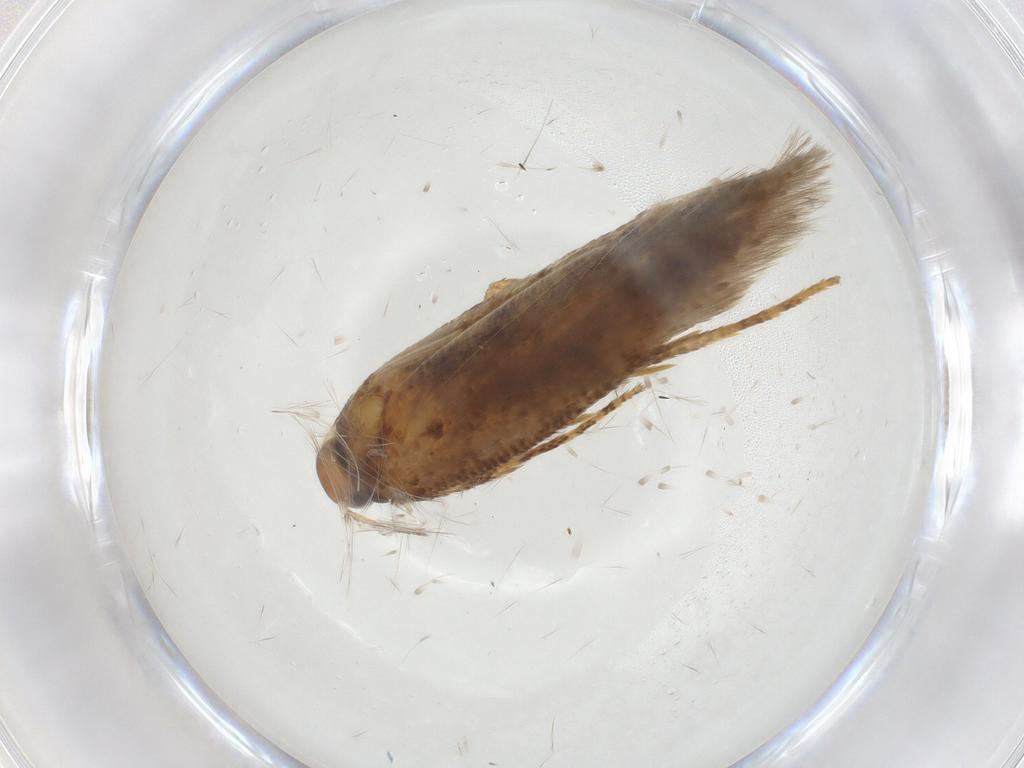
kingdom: Animalia
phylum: Arthropoda
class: Insecta
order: Lepidoptera
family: Gelechiidae
